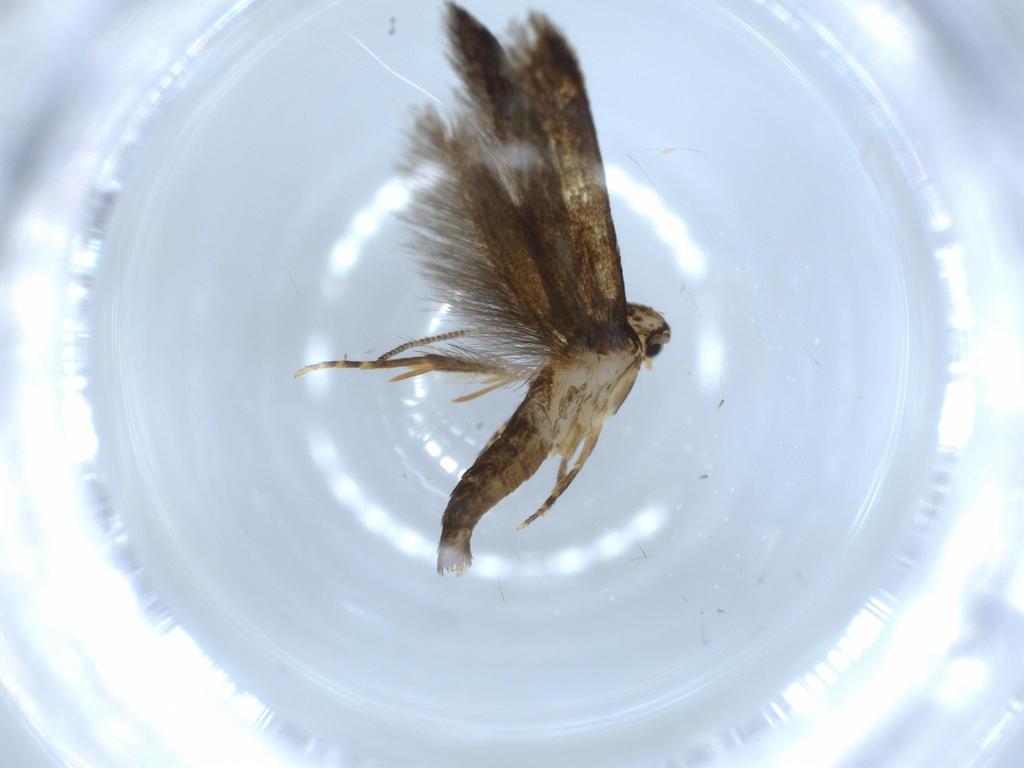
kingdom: Animalia
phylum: Arthropoda
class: Insecta
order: Lepidoptera
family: Tineidae
